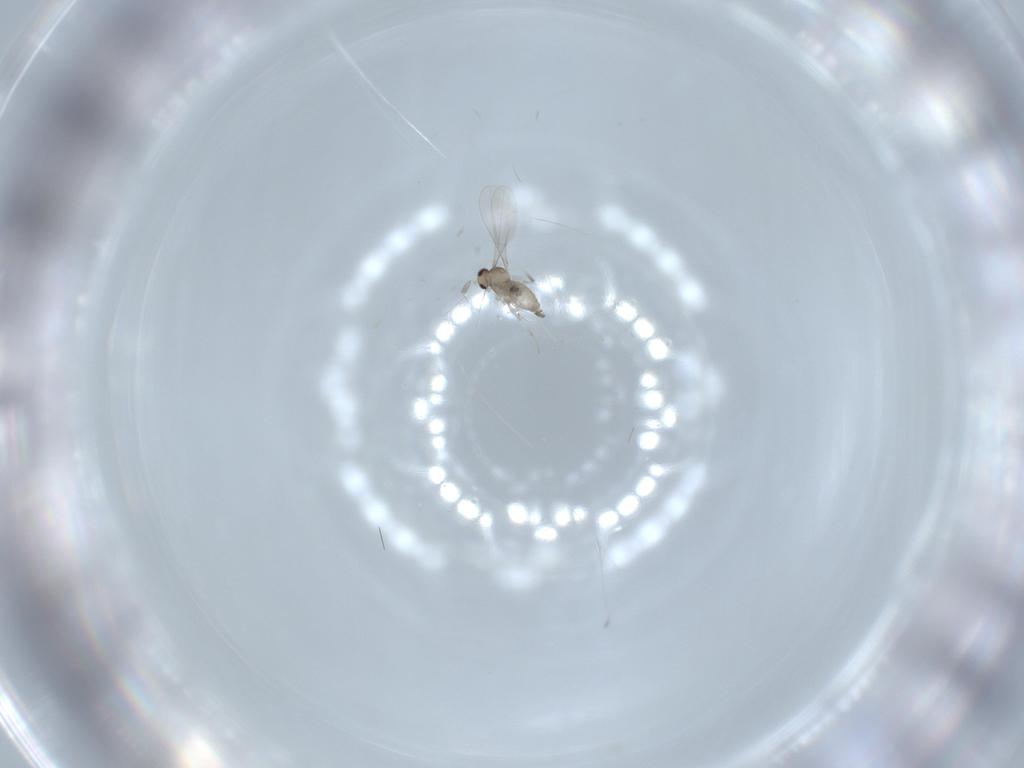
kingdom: Animalia
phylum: Arthropoda
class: Insecta
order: Diptera
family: Cecidomyiidae
